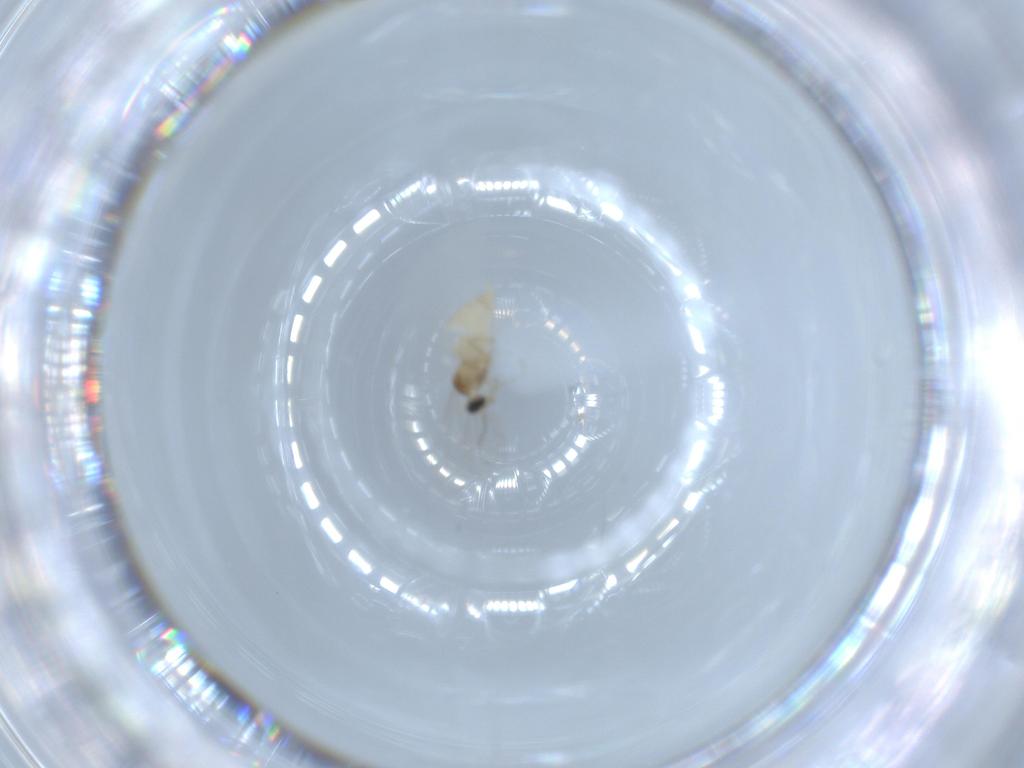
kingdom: Animalia
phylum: Arthropoda
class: Insecta
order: Diptera
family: Cecidomyiidae
